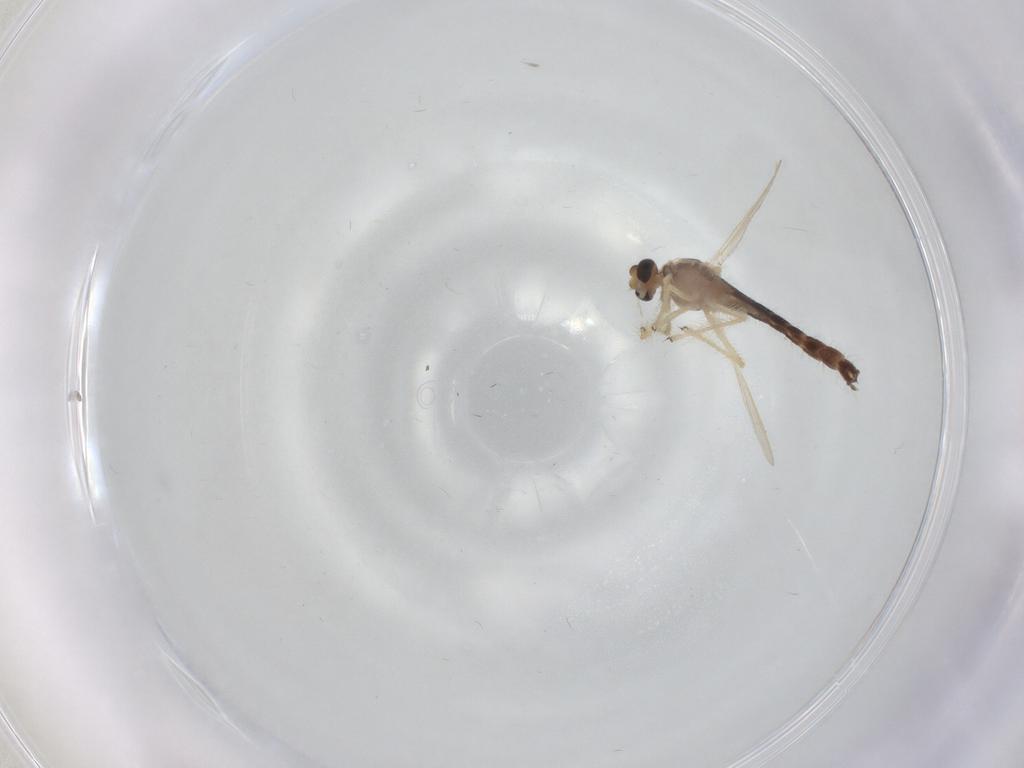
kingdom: Animalia
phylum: Arthropoda
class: Insecta
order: Diptera
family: Chironomidae
